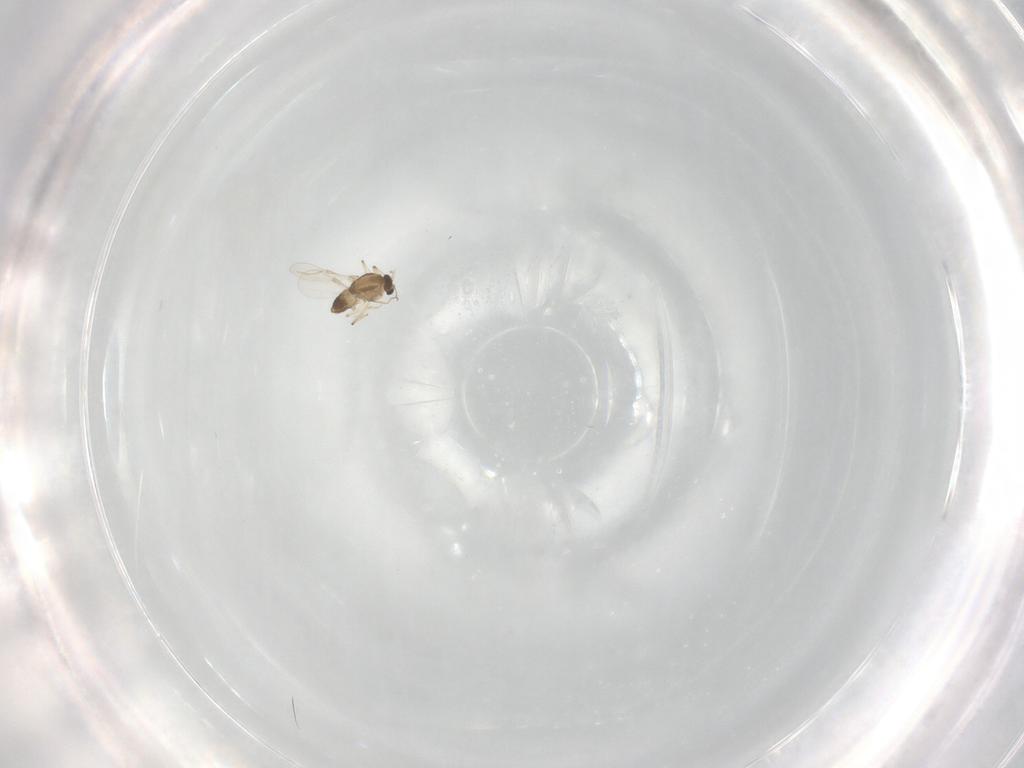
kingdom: Animalia
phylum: Arthropoda
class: Insecta
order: Diptera
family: Cecidomyiidae
